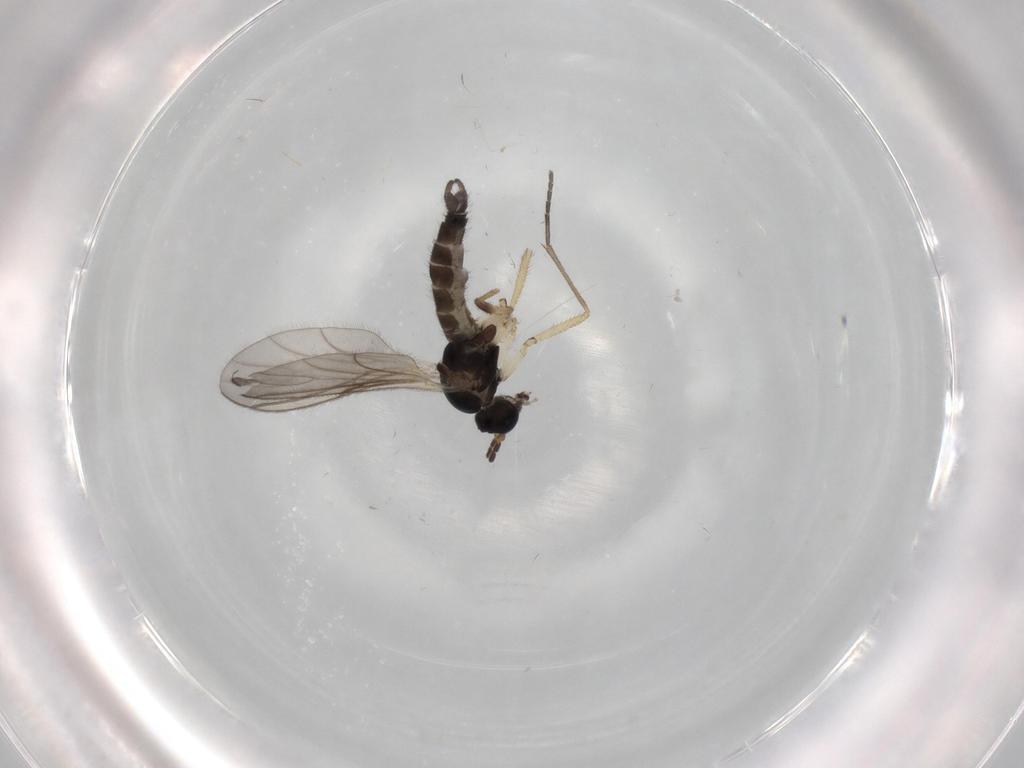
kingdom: Animalia
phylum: Arthropoda
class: Insecta
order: Diptera
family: Sciaridae
